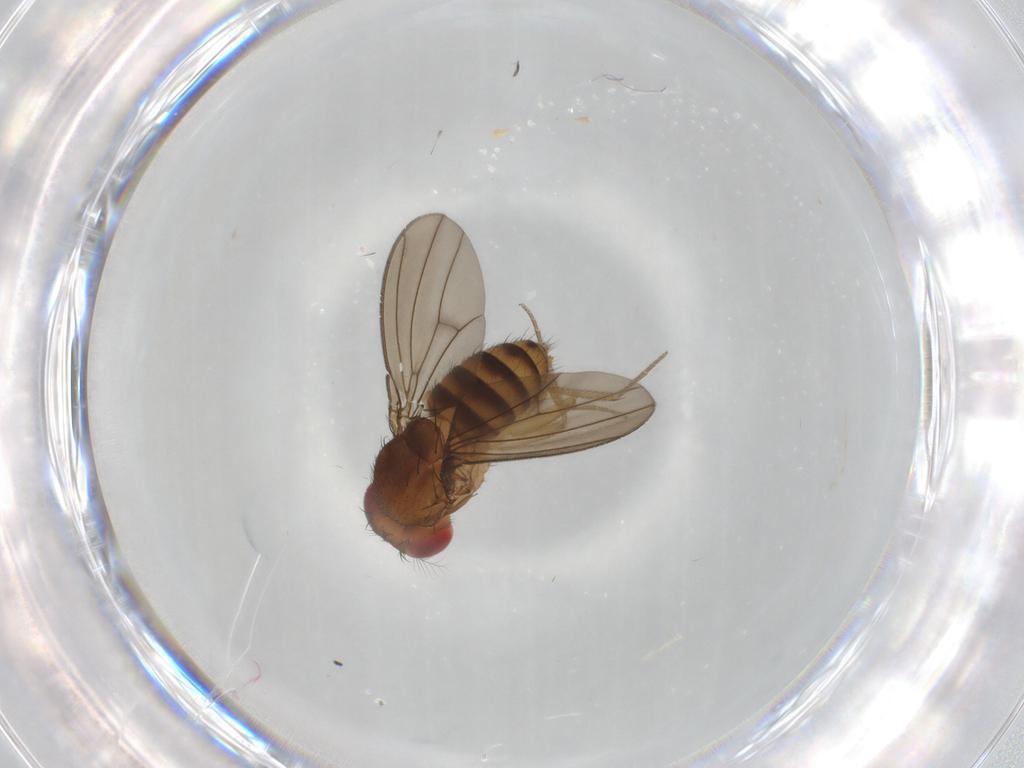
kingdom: Animalia
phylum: Arthropoda
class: Insecta
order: Diptera
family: Drosophilidae
